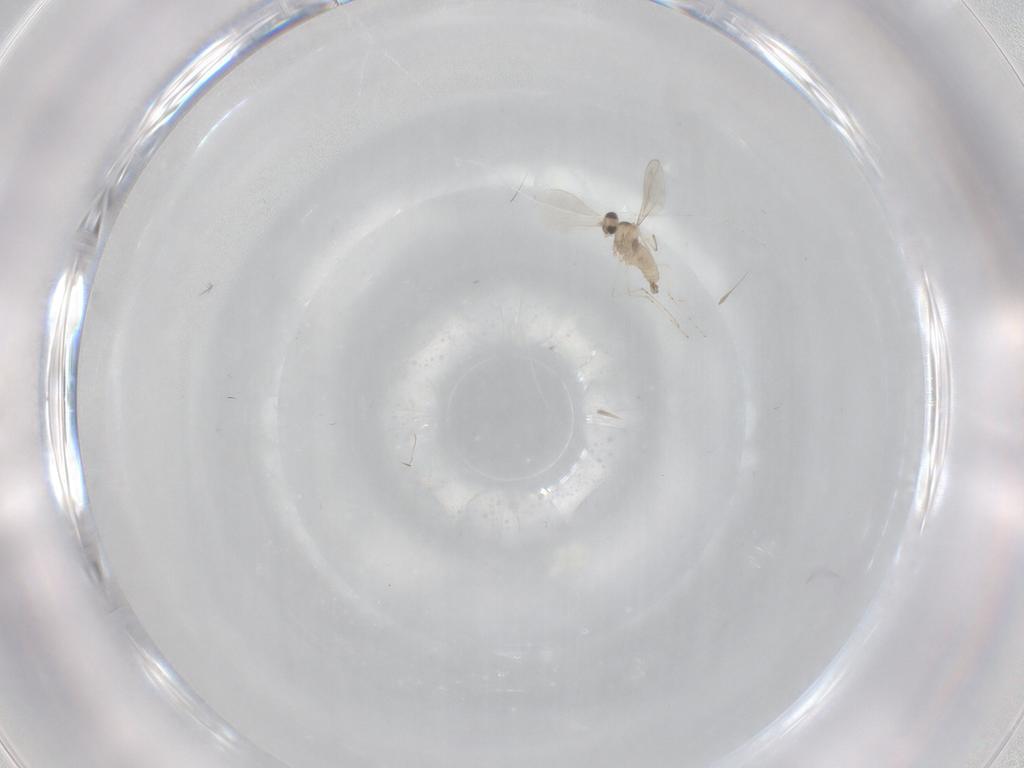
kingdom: Animalia
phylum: Arthropoda
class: Insecta
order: Diptera
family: Cecidomyiidae
